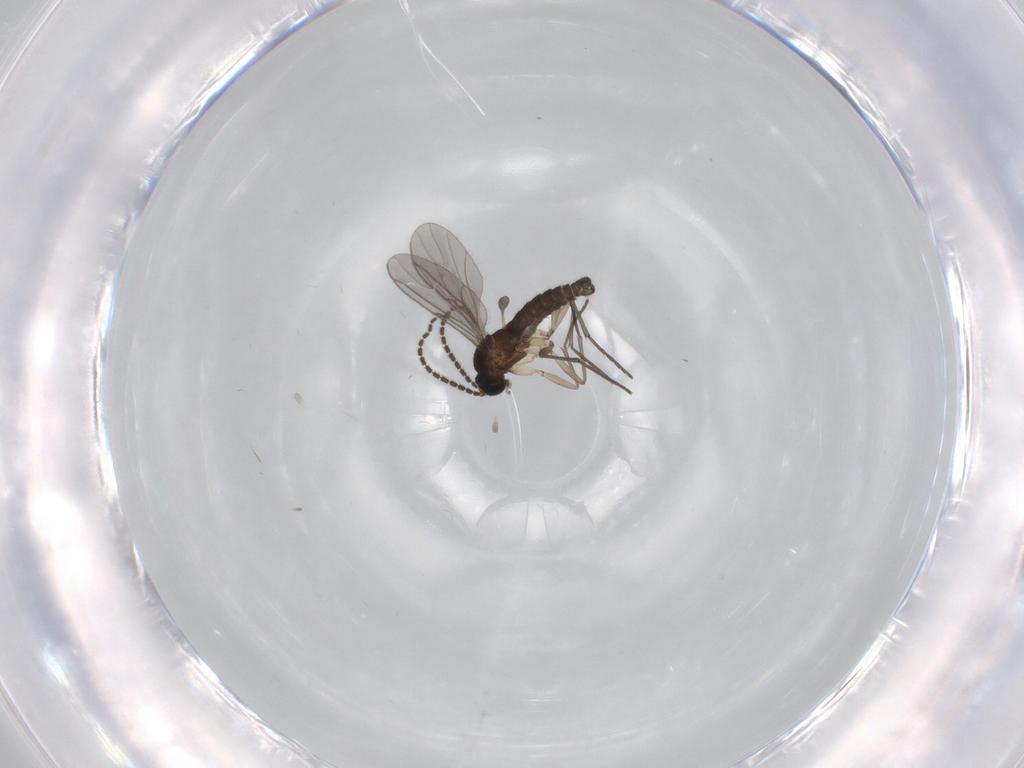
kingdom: Animalia
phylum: Arthropoda
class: Insecta
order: Diptera
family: Sciaridae
